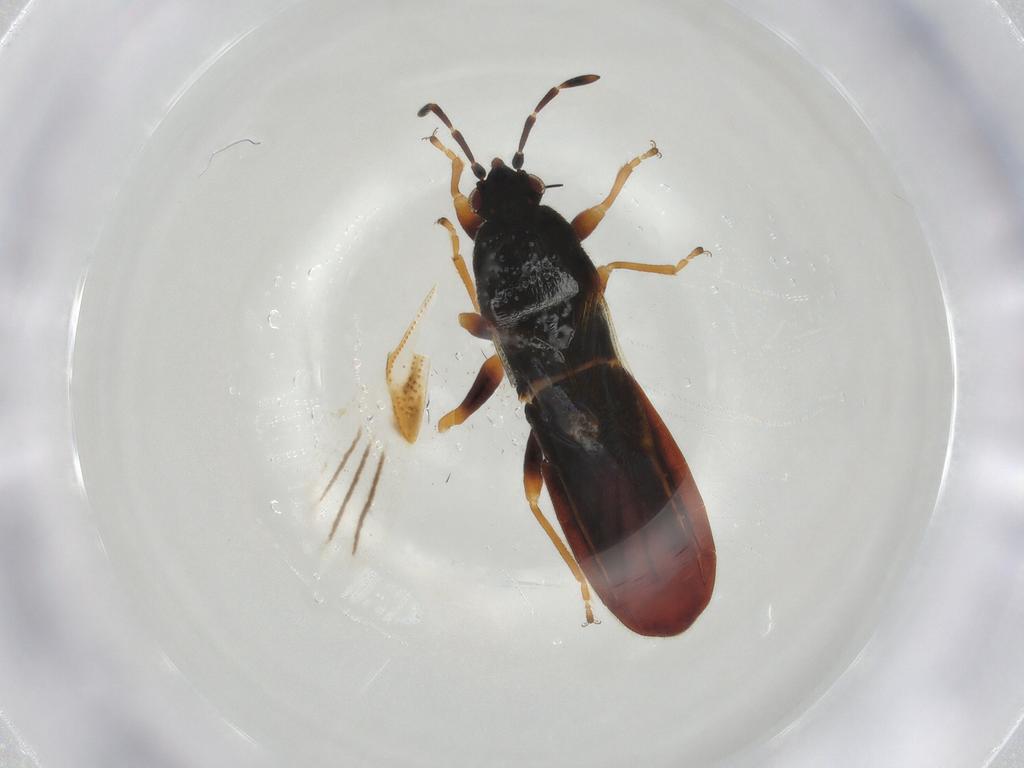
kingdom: Animalia
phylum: Arthropoda
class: Insecta
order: Hemiptera
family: Blissidae
